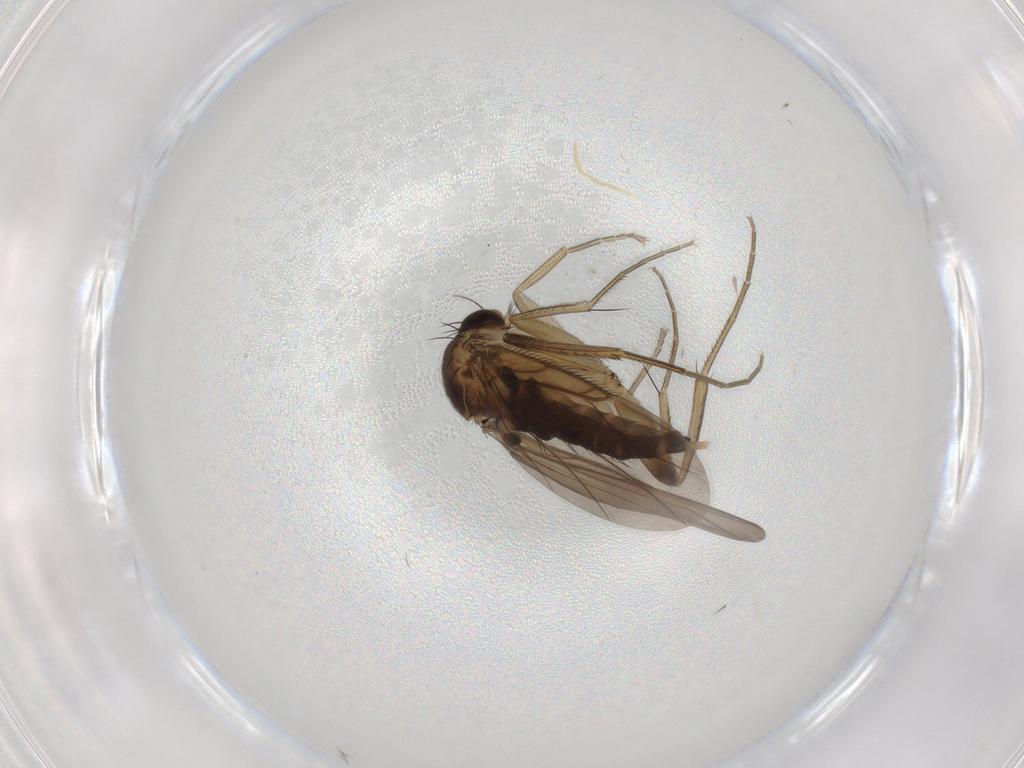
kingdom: Animalia
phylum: Arthropoda
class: Insecta
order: Diptera
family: Phoridae
